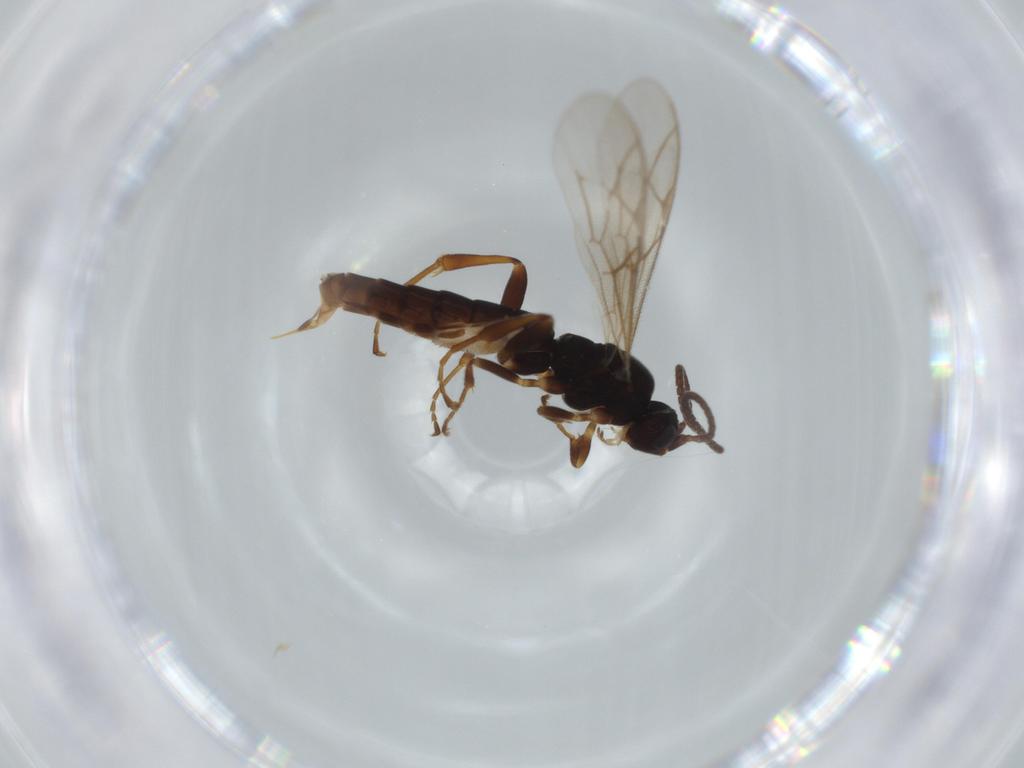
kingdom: Animalia
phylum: Arthropoda
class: Insecta
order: Hymenoptera
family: Ichneumonidae
